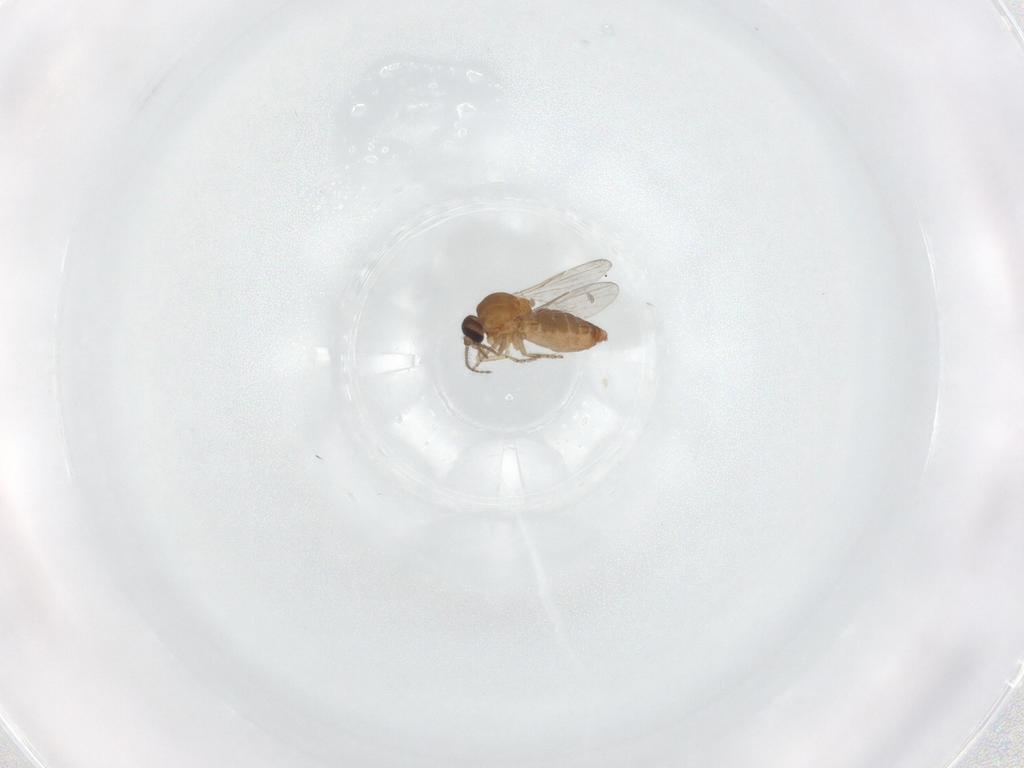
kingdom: Animalia
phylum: Arthropoda
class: Insecta
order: Diptera
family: Ceratopogonidae
